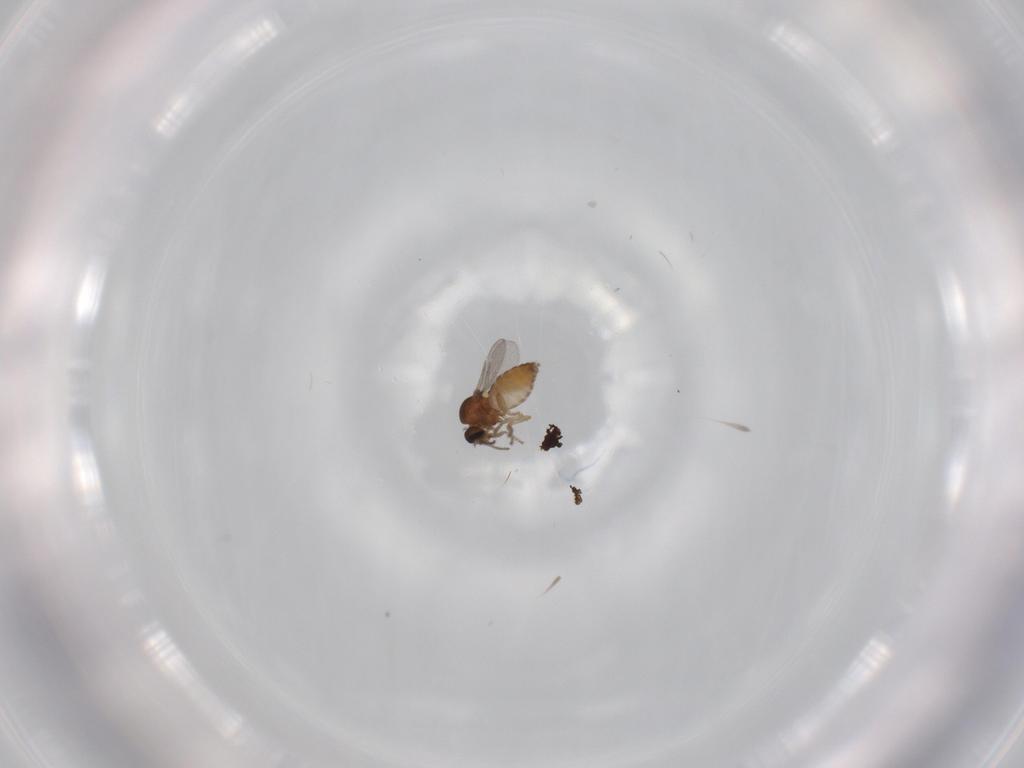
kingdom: Animalia
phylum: Arthropoda
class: Insecta
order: Diptera
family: Ceratopogonidae
